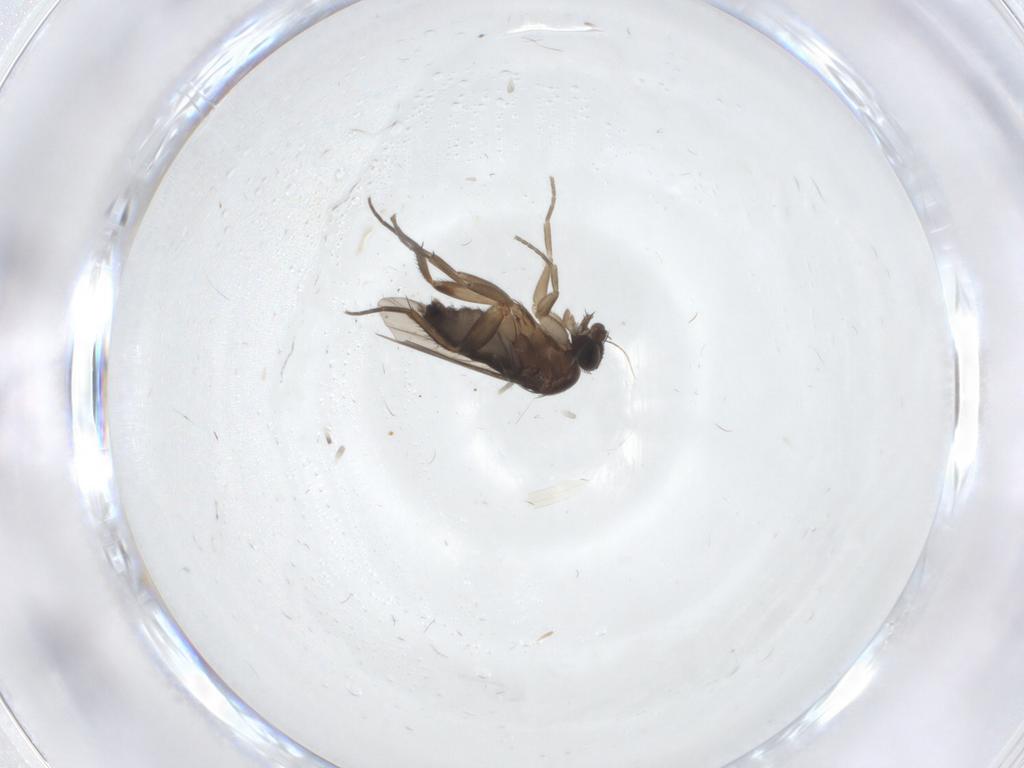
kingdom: Animalia
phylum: Arthropoda
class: Insecta
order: Diptera
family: Phoridae
